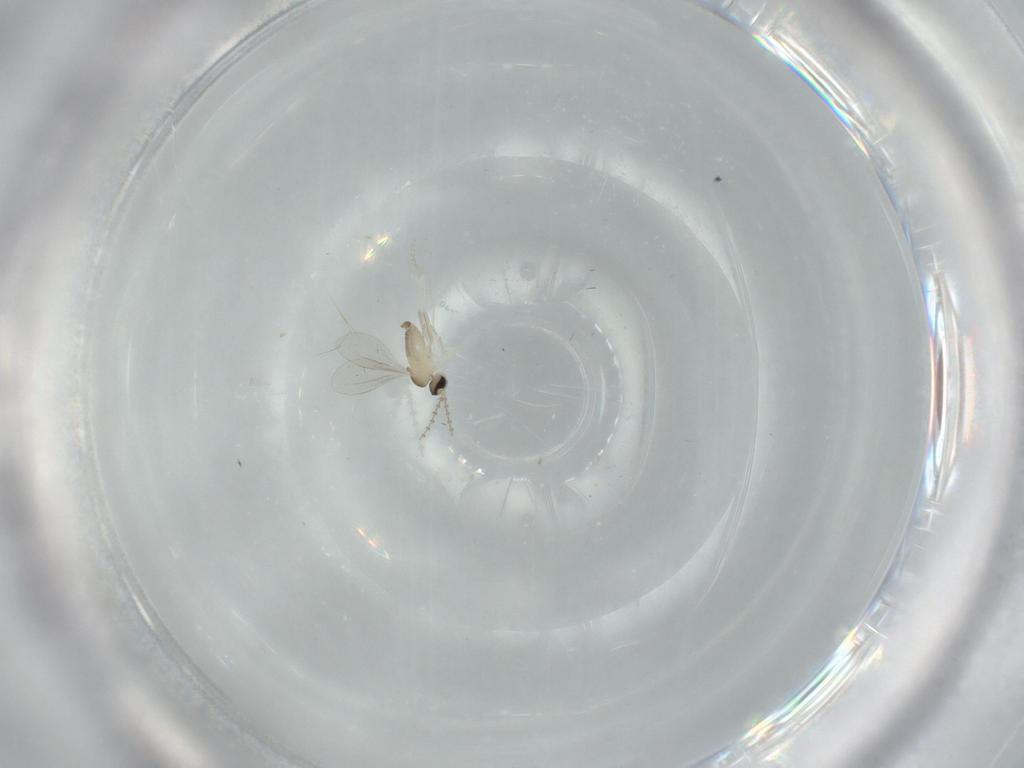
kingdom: Animalia
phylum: Arthropoda
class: Insecta
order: Diptera
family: Cecidomyiidae
